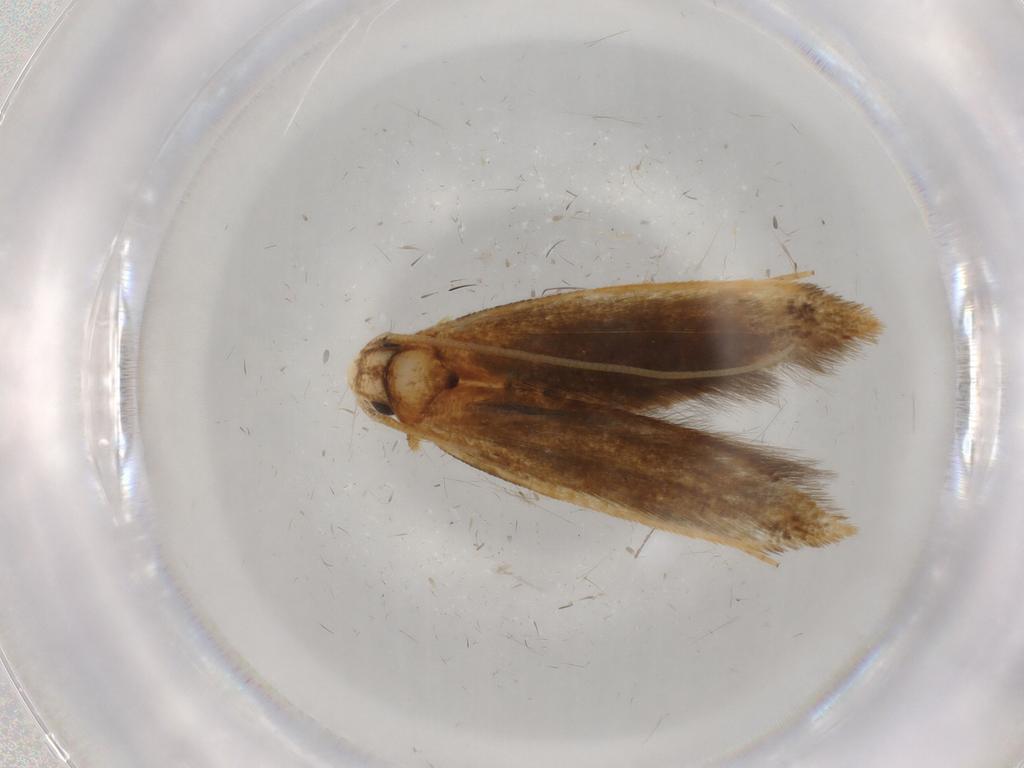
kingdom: Animalia
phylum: Arthropoda
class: Insecta
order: Lepidoptera
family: Tineidae
